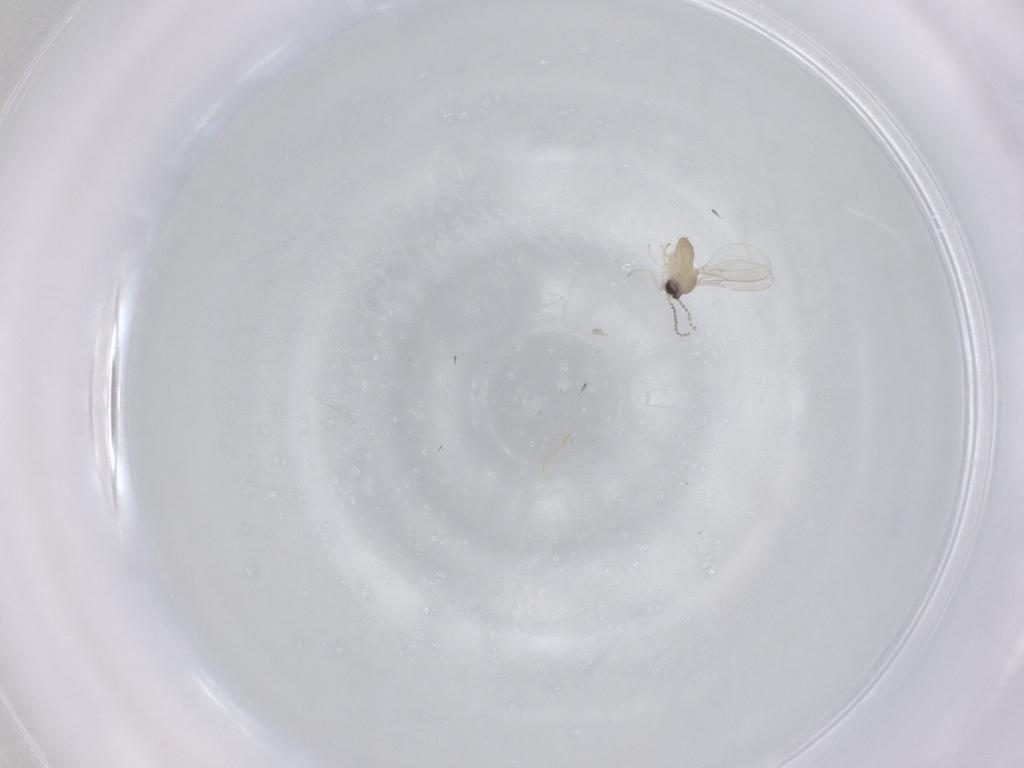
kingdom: Animalia
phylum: Arthropoda
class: Insecta
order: Diptera
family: Cecidomyiidae
